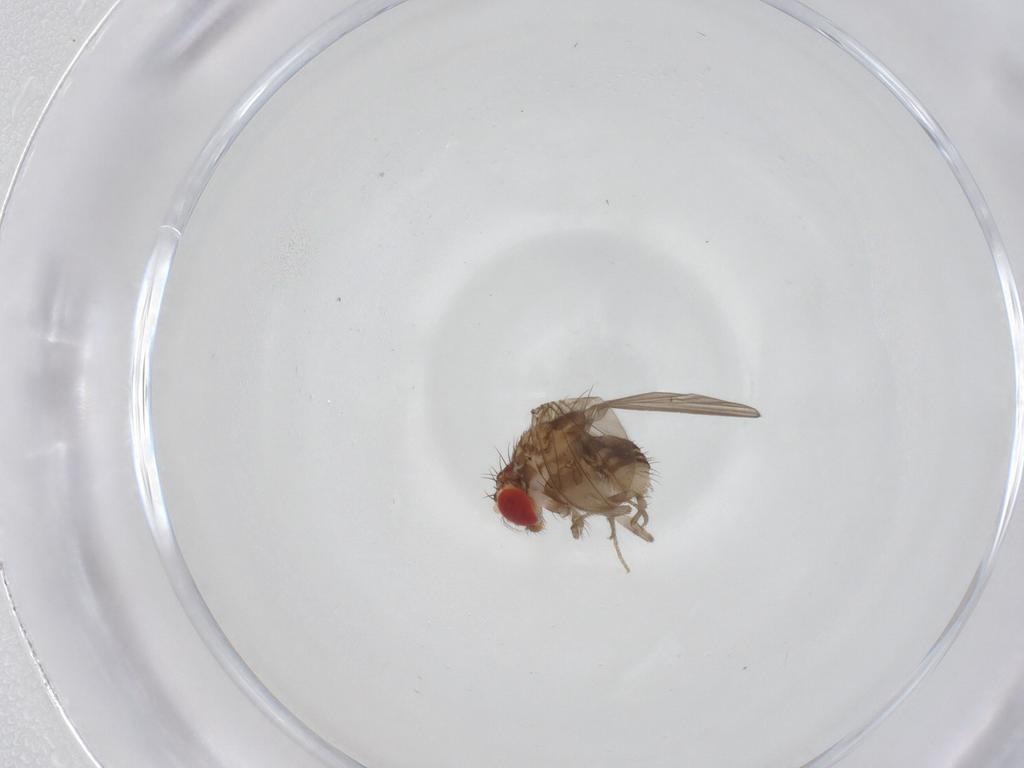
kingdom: Animalia
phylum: Arthropoda
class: Insecta
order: Diptera
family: Drosophilidae
